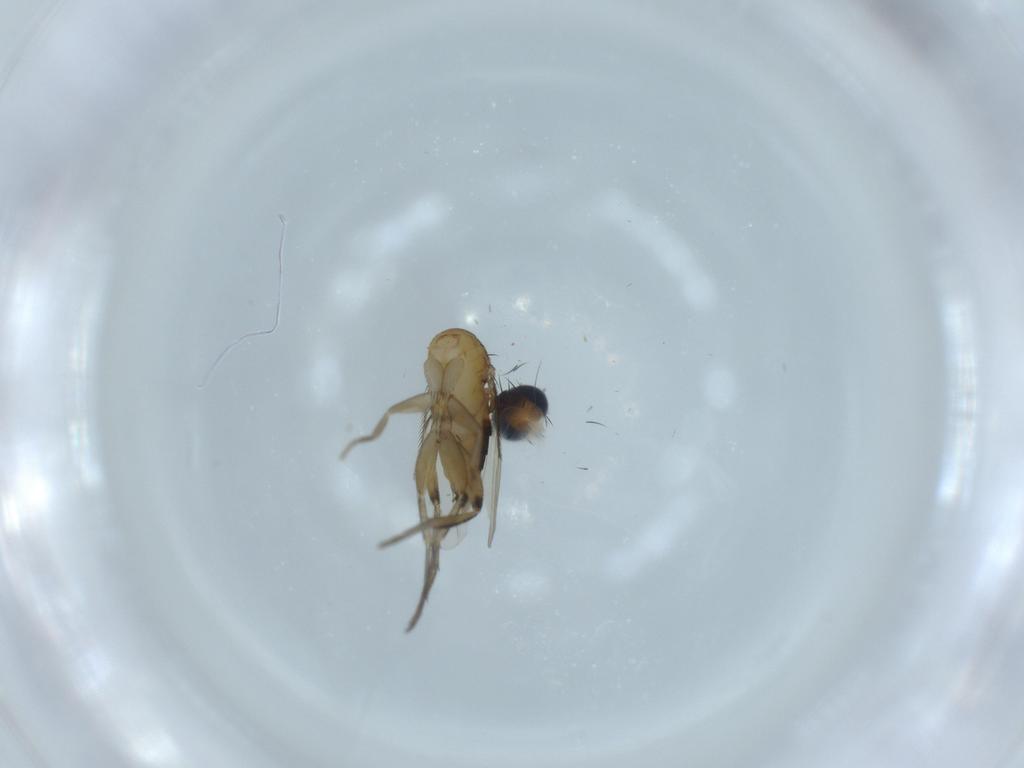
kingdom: Animalia
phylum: Arthropoda
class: Insecta
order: Diptera
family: Phoridae
